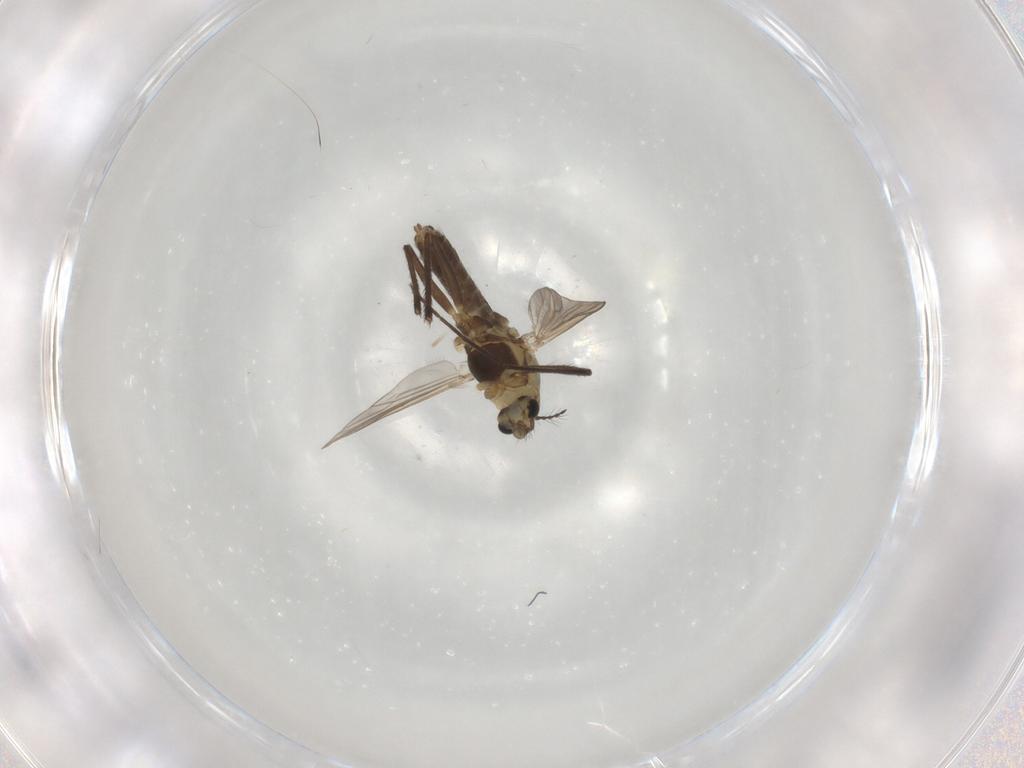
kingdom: Animalia
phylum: Arthropoda
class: Insecta
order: Diptera
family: Chironomidae
